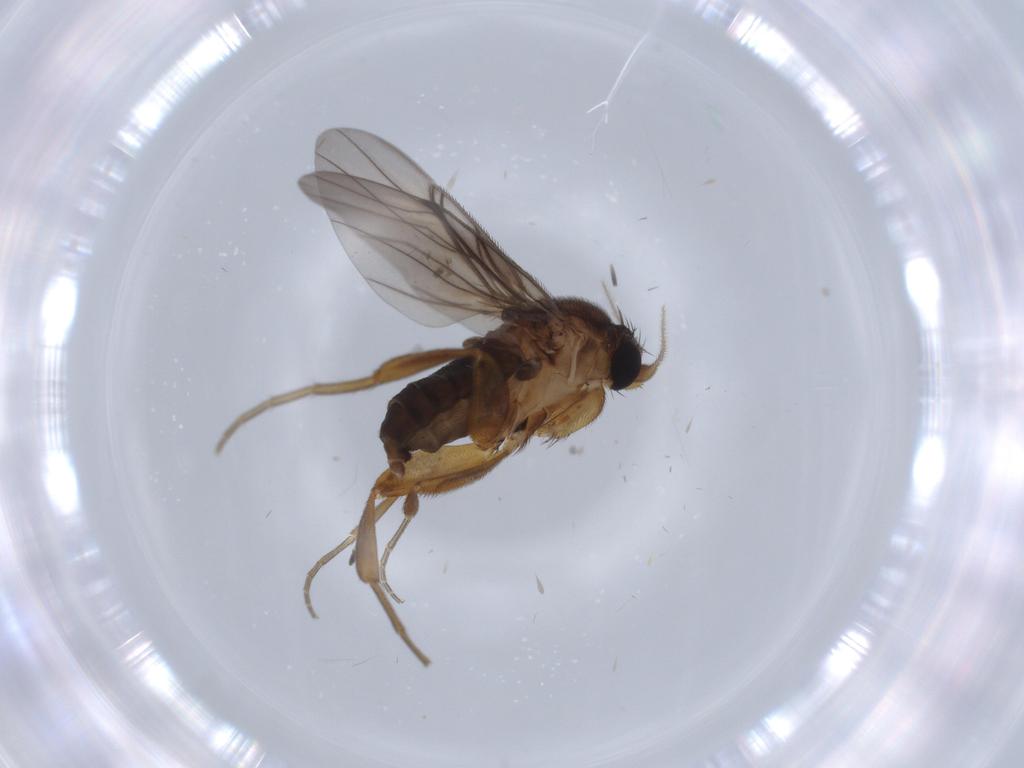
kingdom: Animalia
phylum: Arthropoda
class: Insecta
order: Diptera
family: Phoridae
